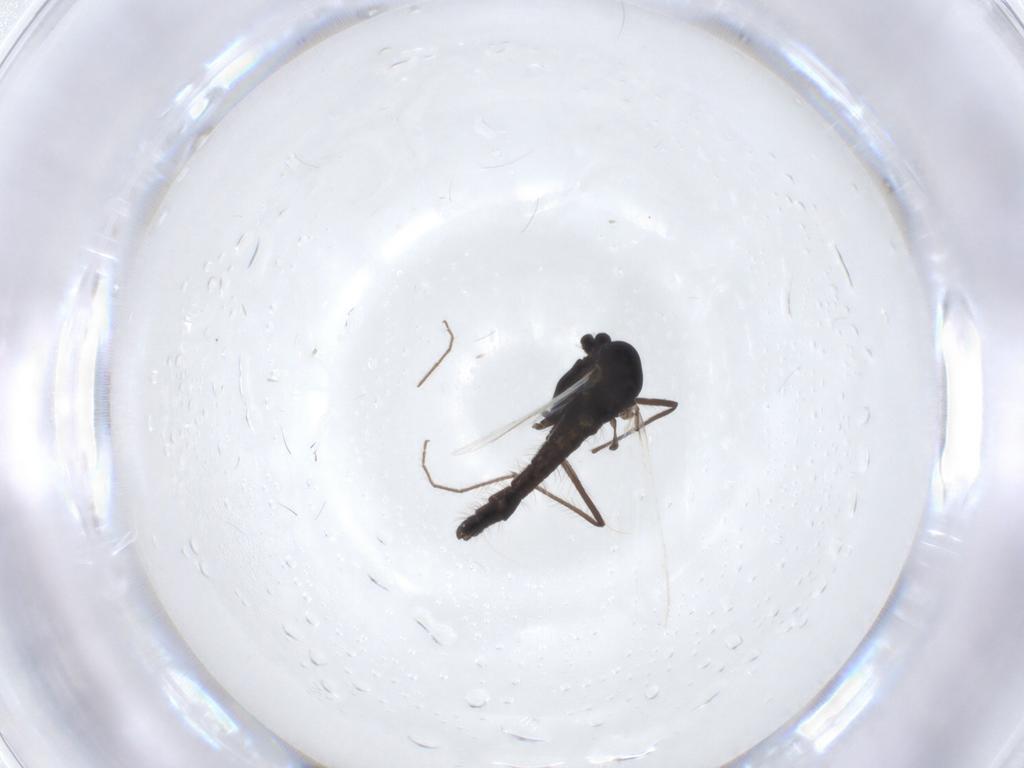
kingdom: Animalia
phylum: Arthropoda
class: Insecta
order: Diptera
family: Chironomidae
